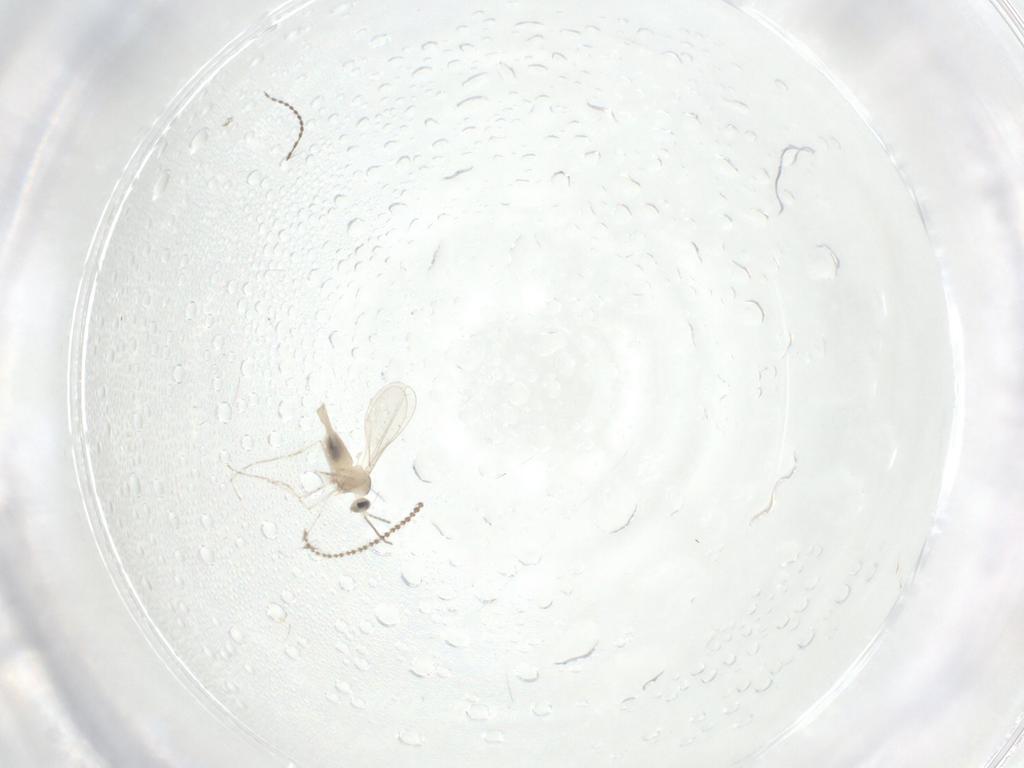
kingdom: Animalia
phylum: Arthropoda
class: Insecta
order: Diptera
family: Cecidomyiidae
